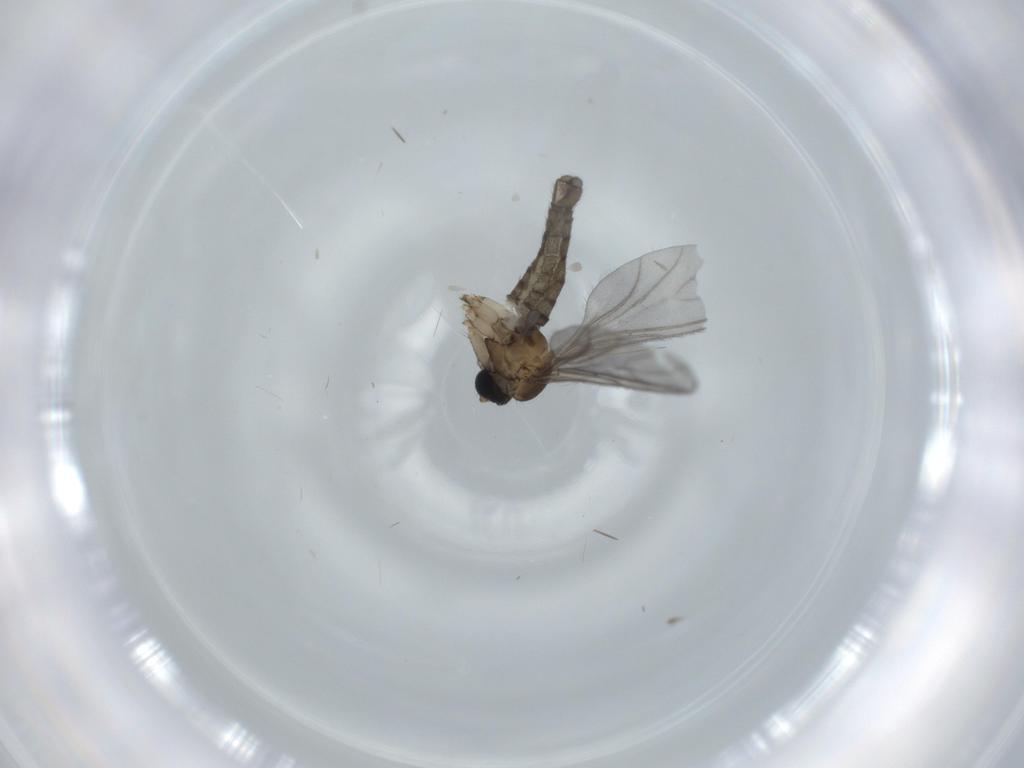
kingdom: Animalia
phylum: Arthropoda
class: Insecta
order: Diptera
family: Sciaridae
